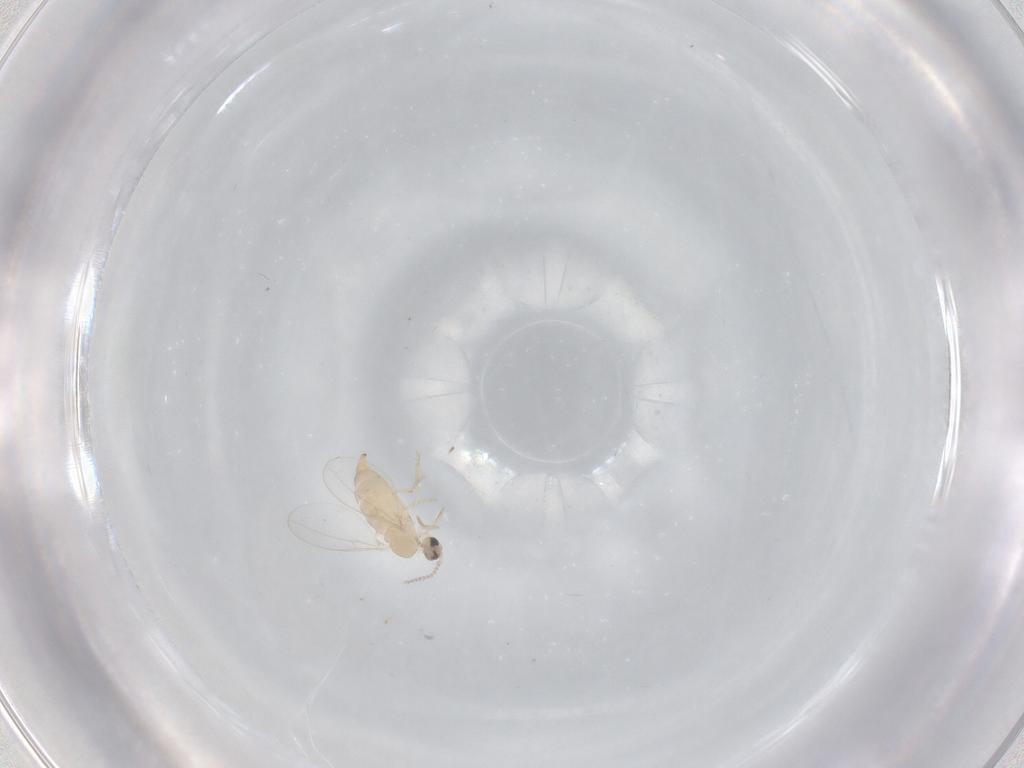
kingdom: Animalia
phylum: Arthropoda
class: Insecta
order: Diptera
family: Cecidomyiidae
